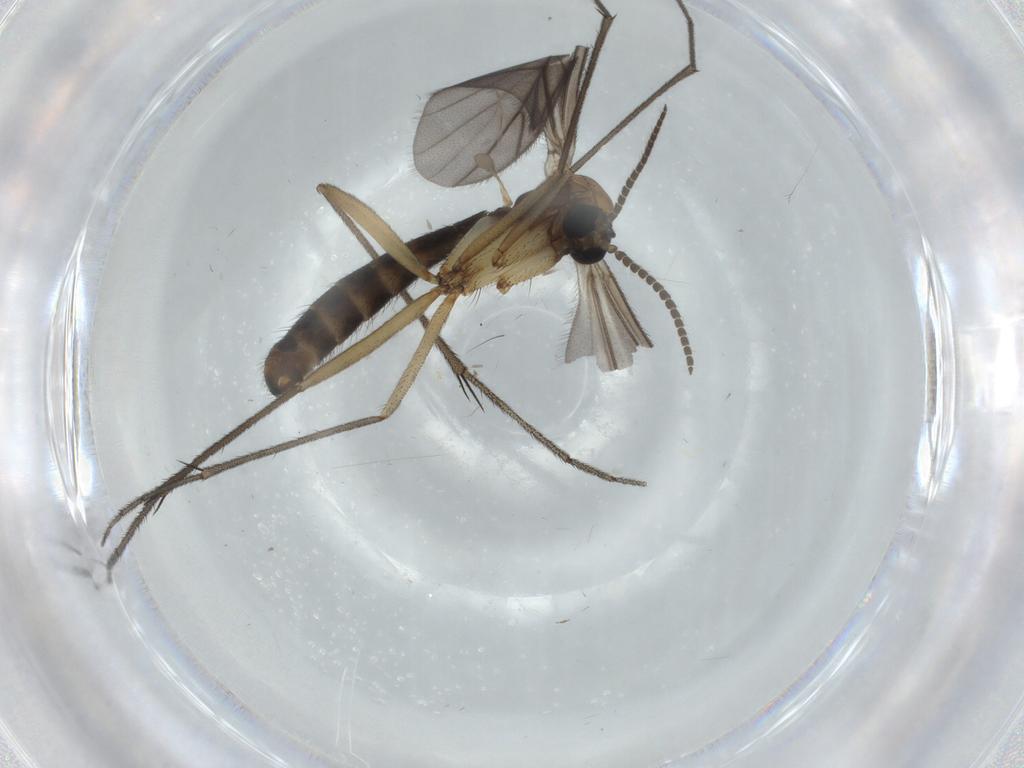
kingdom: Animalia
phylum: Arthropoda
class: Insecta
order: Diptera
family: Ditomyiidae
